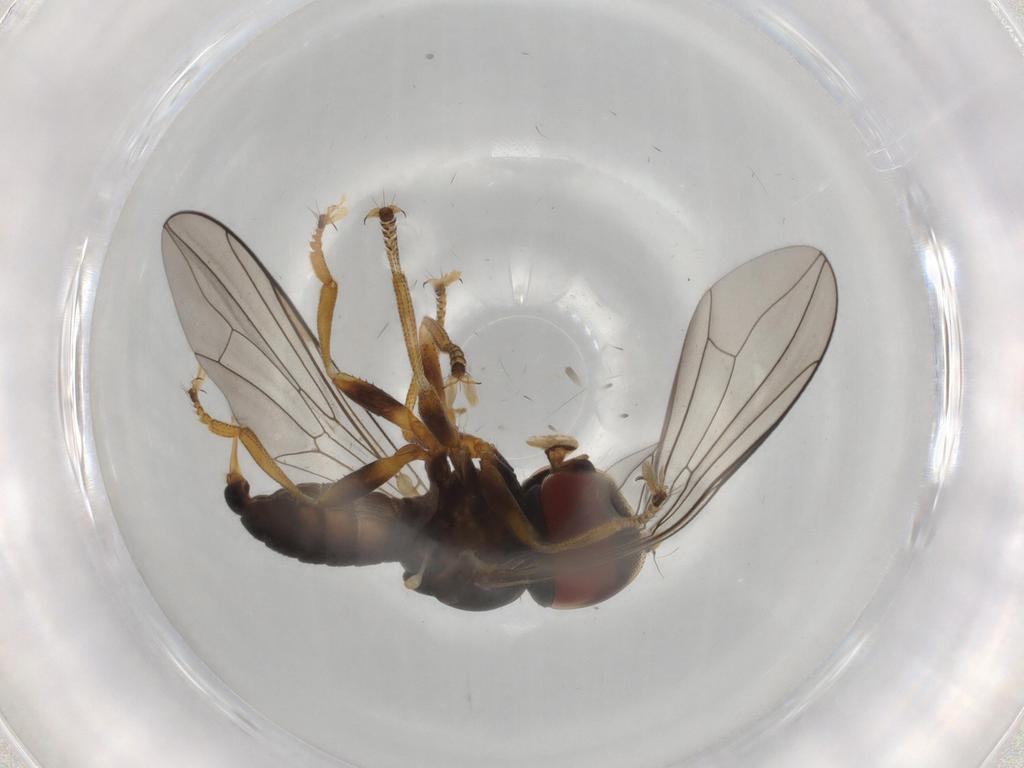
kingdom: Animalia
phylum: Arthropoda
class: Insecta
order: Diptera
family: Pipunculidae
